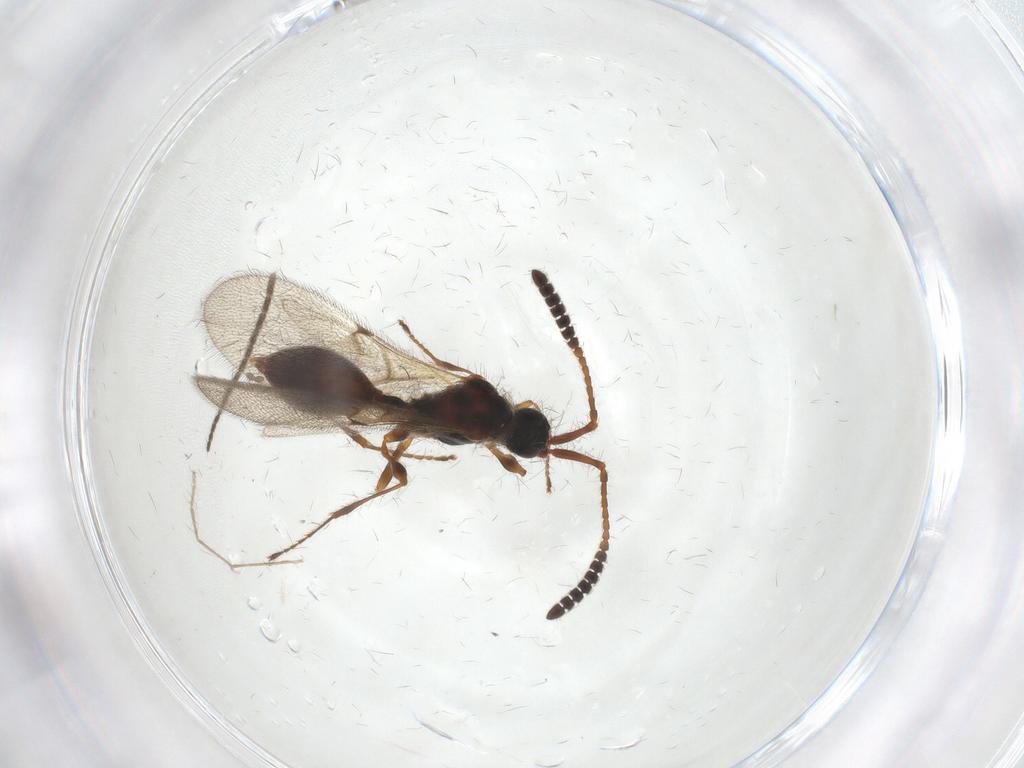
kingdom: Animalia
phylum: Arthropoda
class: Insecta
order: Hymenoptera
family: Diapriidae
